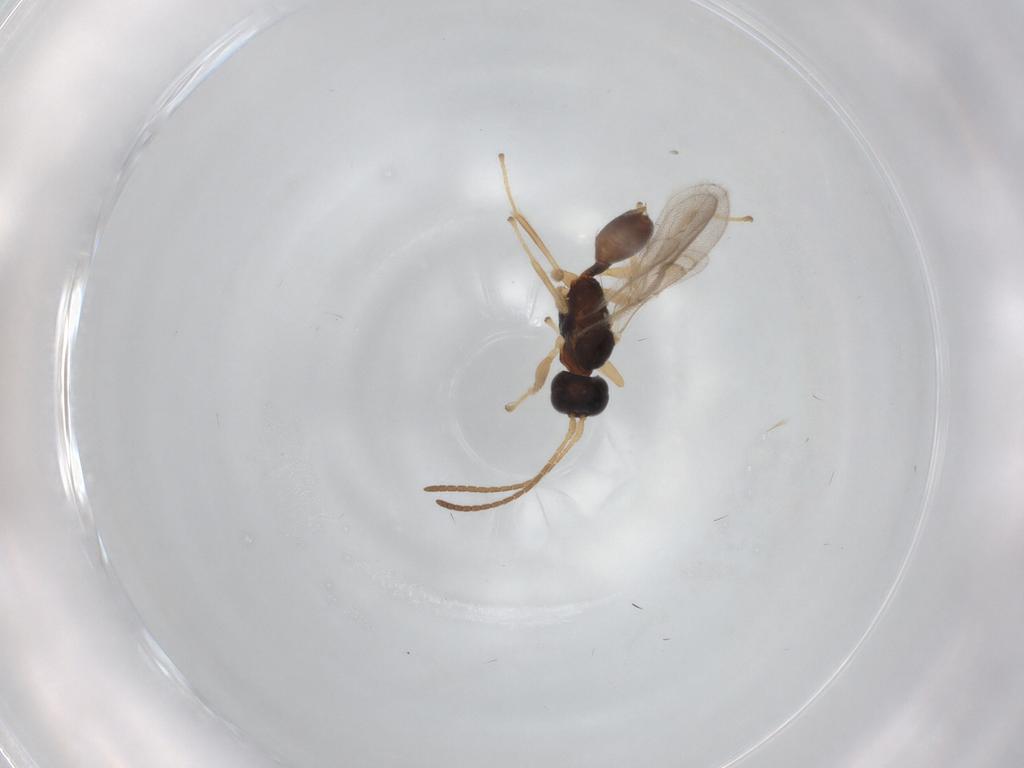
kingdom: Animalia
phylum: Arthropoda
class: Insecta
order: Hymenoptera
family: Braconidae
